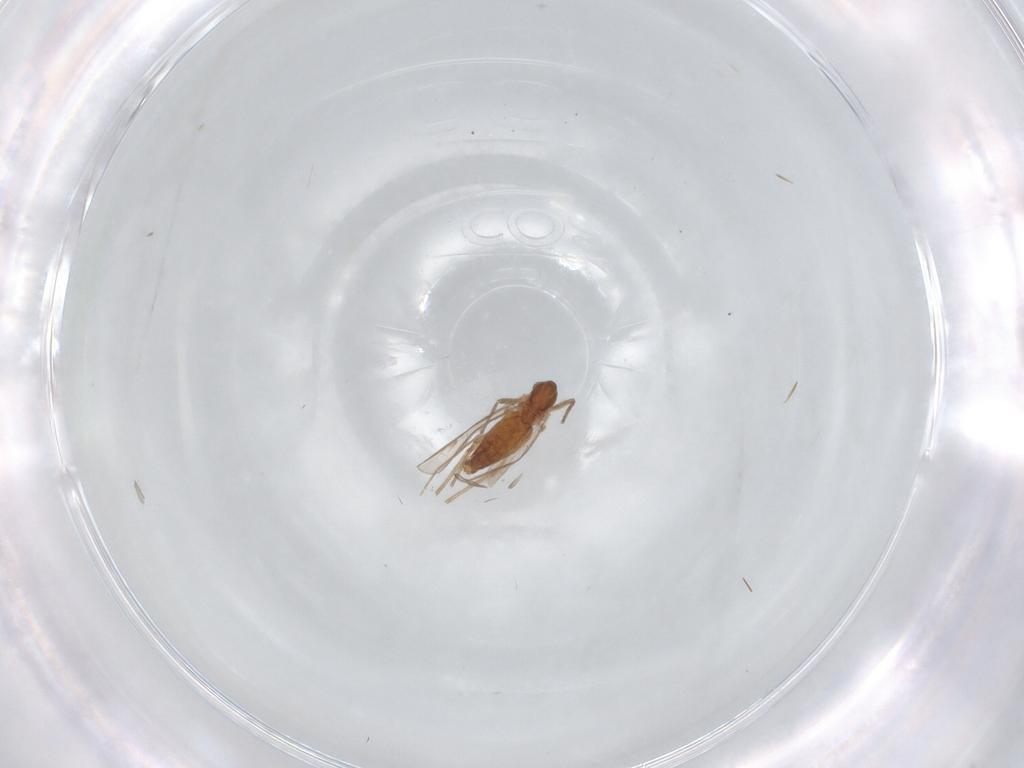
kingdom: Animalia
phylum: Arthropoda
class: Insecta
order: Diptera
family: Chironomidae
